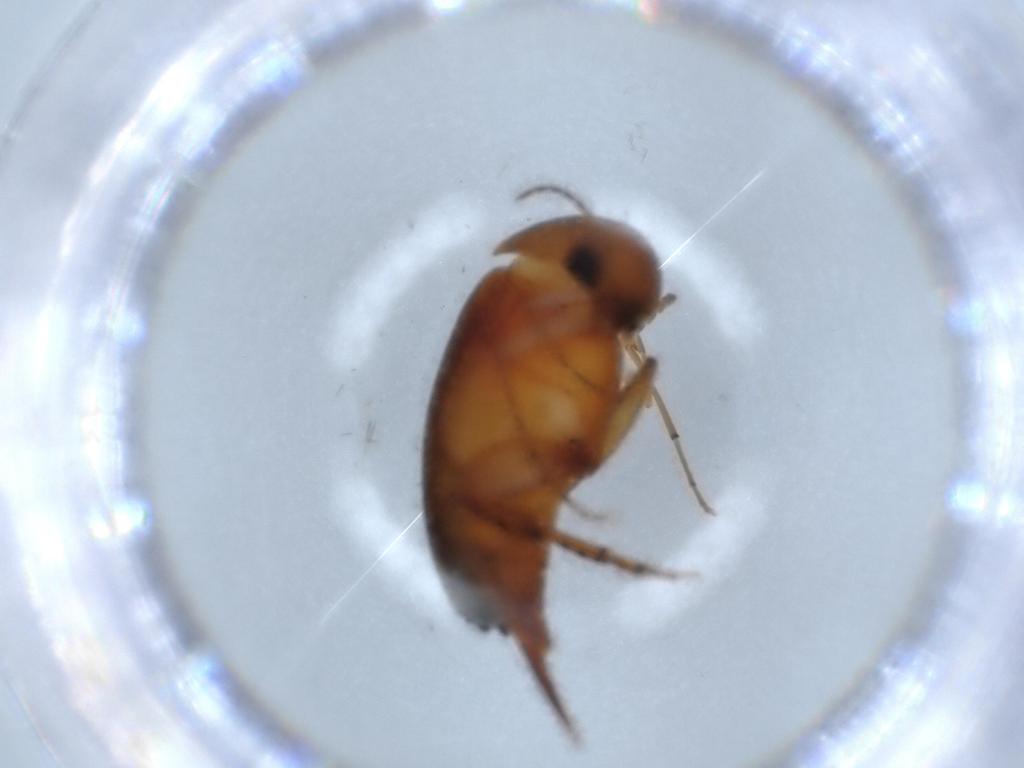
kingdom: Animalia
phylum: Arthropoda
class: Insecta
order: Coleoptera
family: Mordellidae
